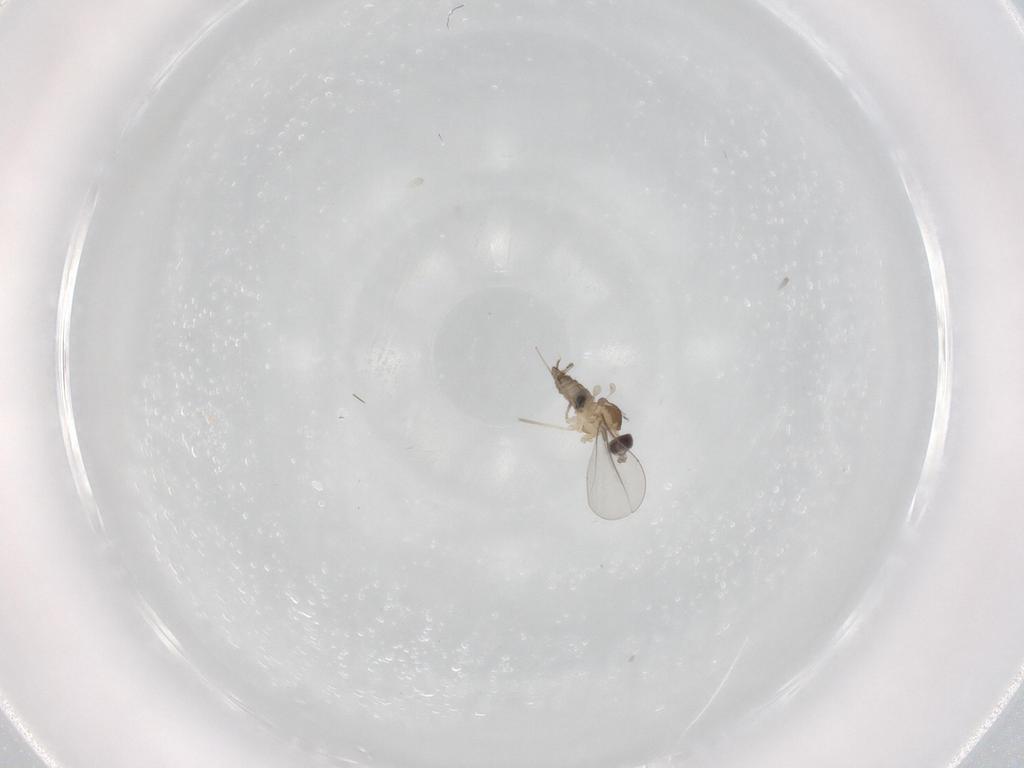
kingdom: Animalia
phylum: Arthropoda
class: Insecta
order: Diptera
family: Cecidomyiidae
